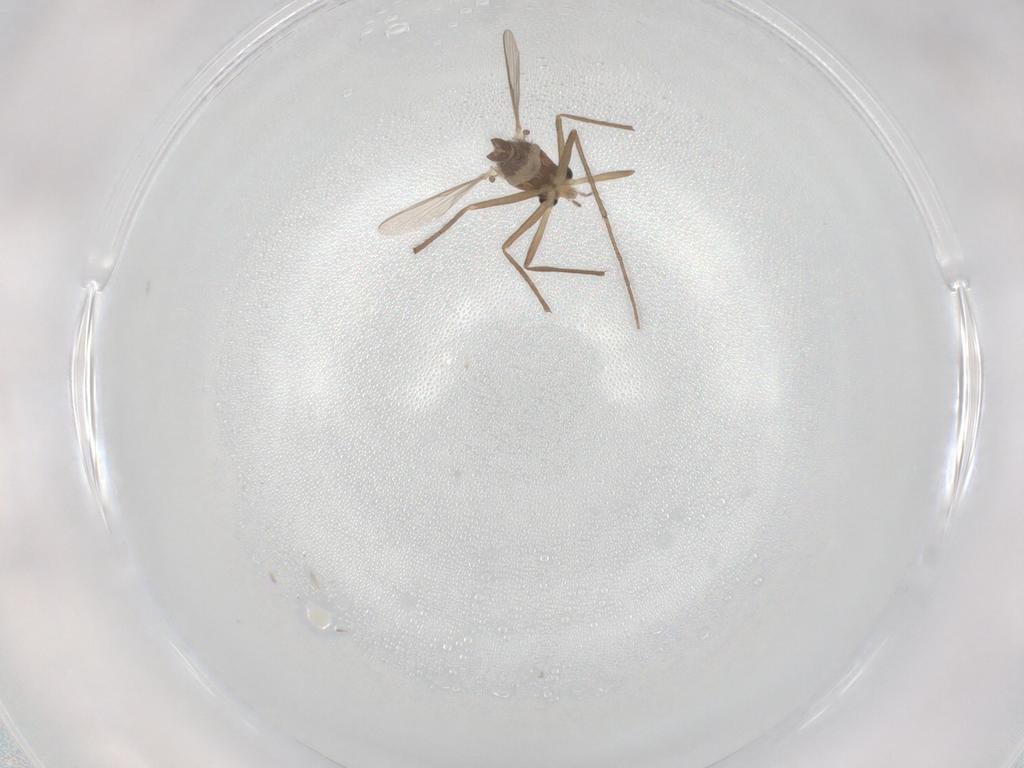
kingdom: Animalia
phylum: Arthropoda
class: Insecta
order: Diptera
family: Chironomidae
